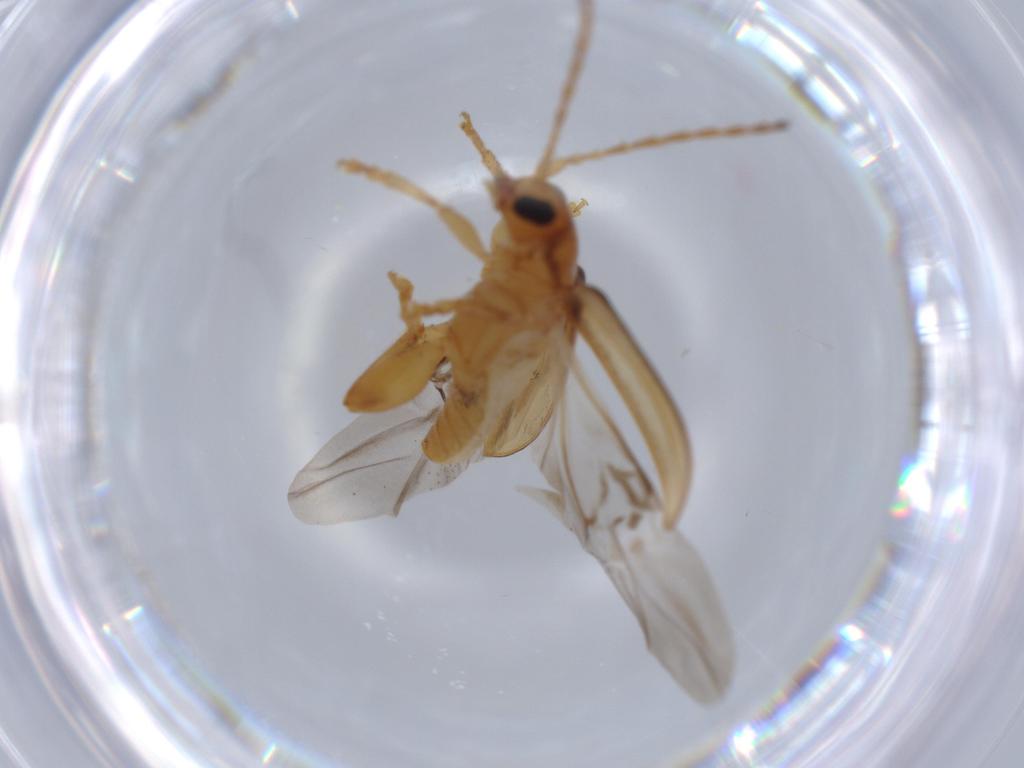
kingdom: Animalia
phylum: Arthropoda
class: Insecta
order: Coleoptera
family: Chrysomelidae
